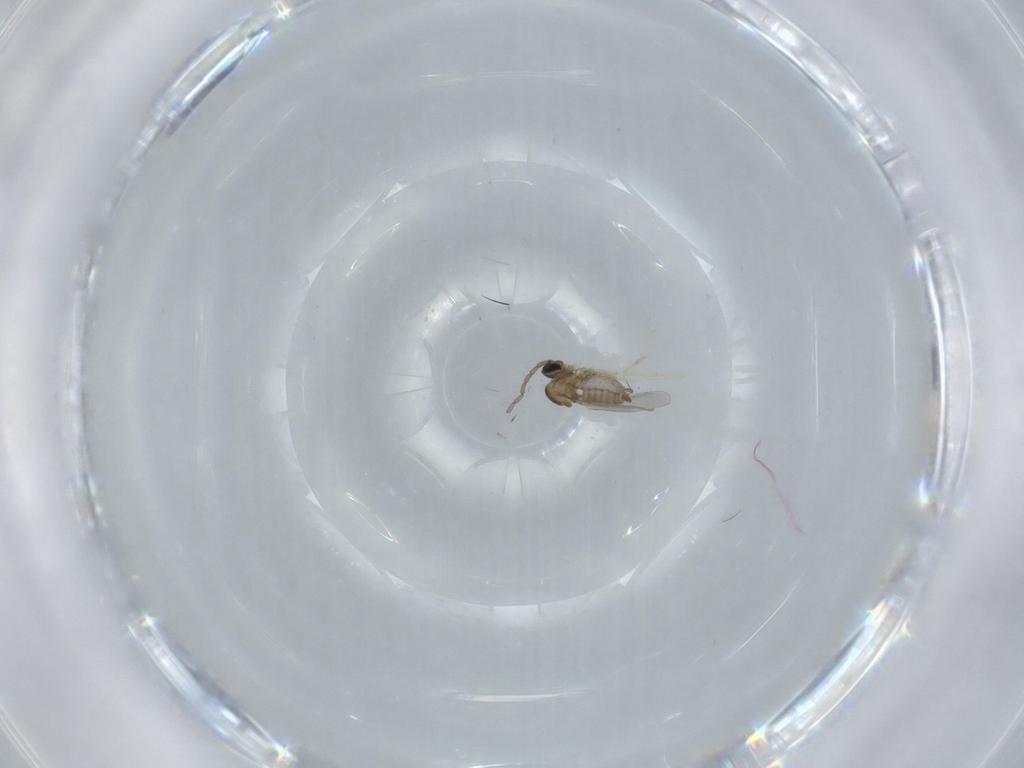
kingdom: Animalia
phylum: Arthropoda
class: Insecta
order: Diptera
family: Cecidomyiidae
